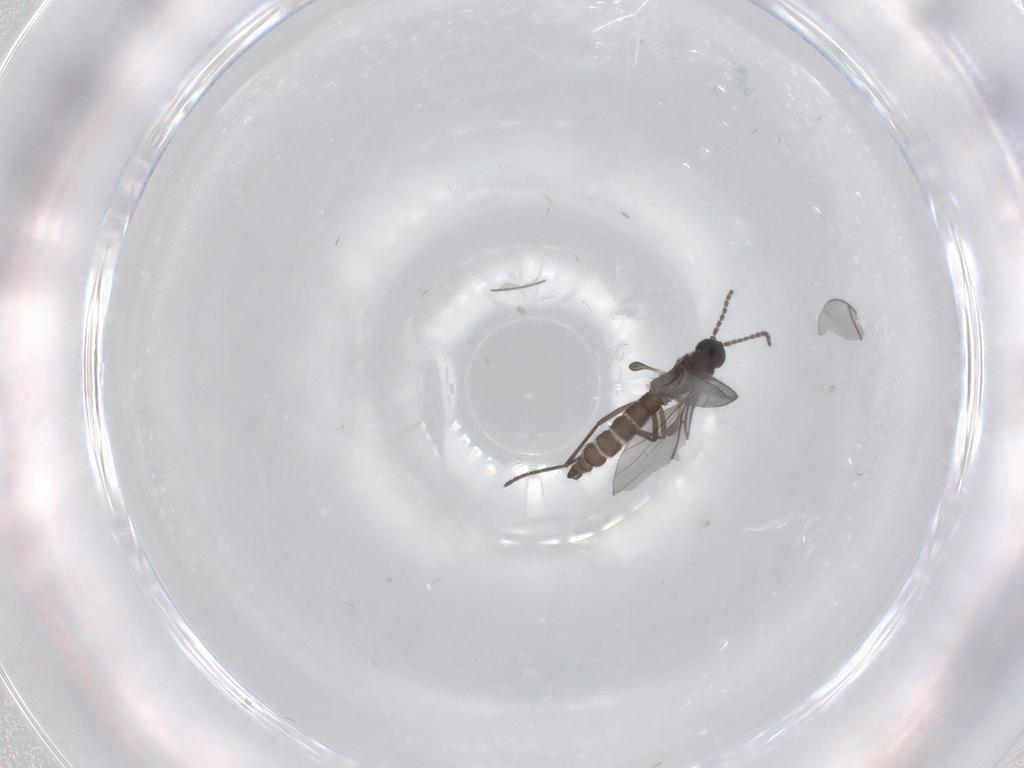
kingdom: Animalia
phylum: Arthropoda
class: Insecta
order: Diptera
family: Sciaridae
